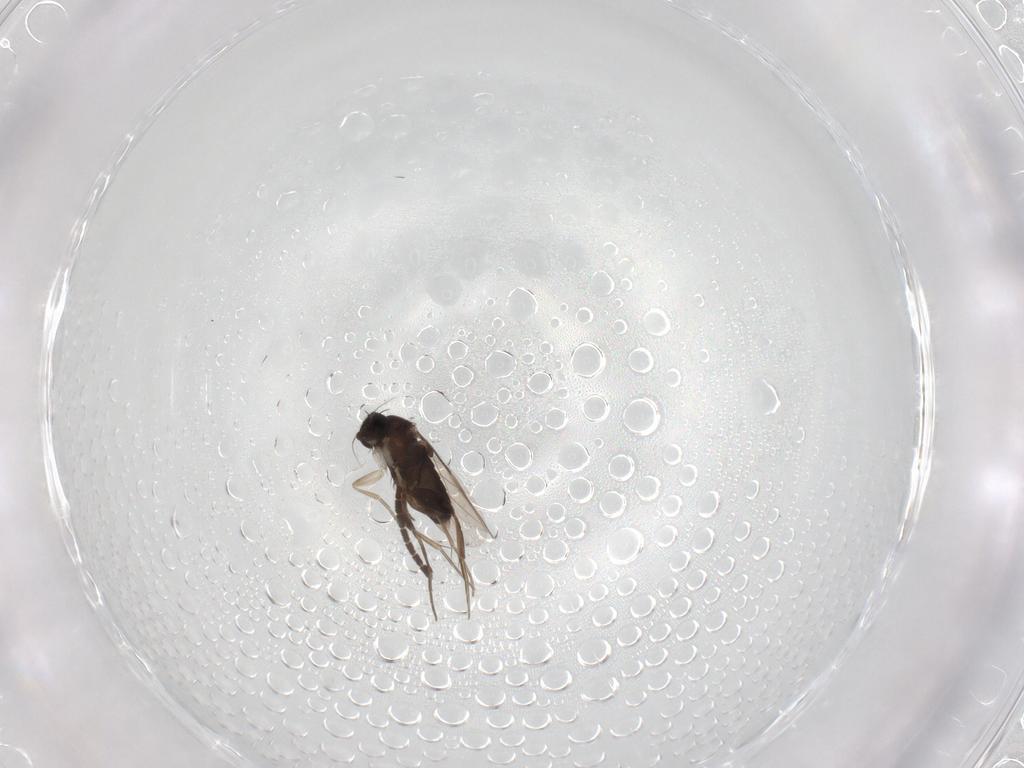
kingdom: Animalia
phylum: Arthropoda
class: Insecta
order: Diptera
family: Phoridae
